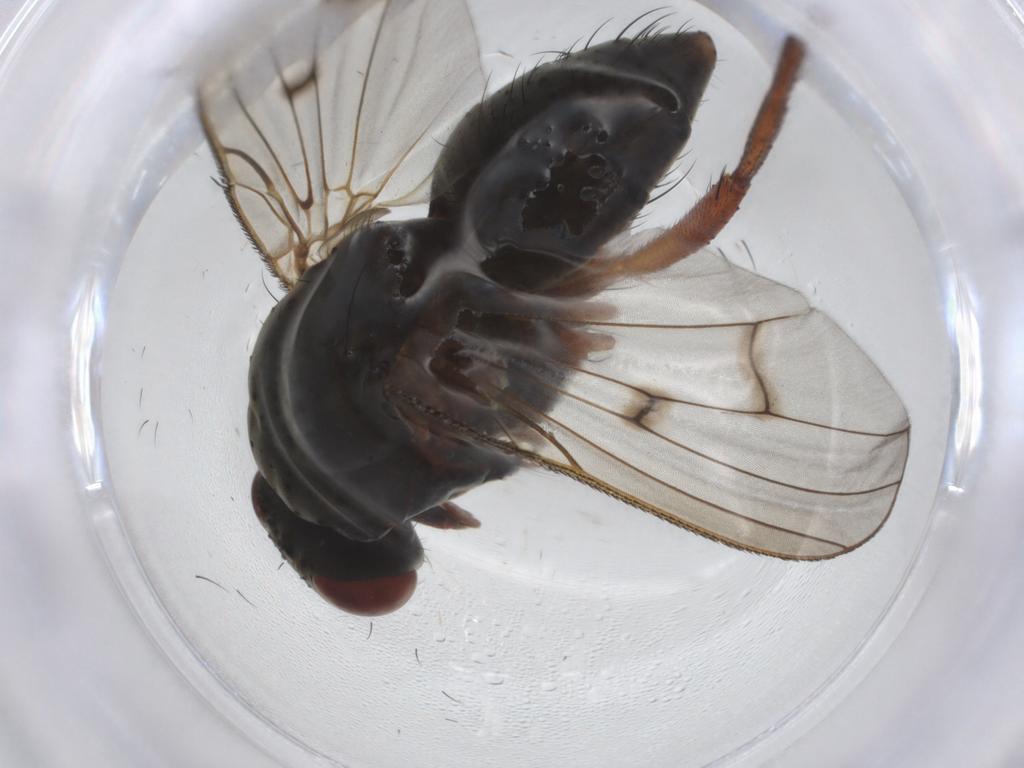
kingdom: Animalia
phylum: Arthropoda
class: Insecta
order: Diptera
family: Anthomyiidae
